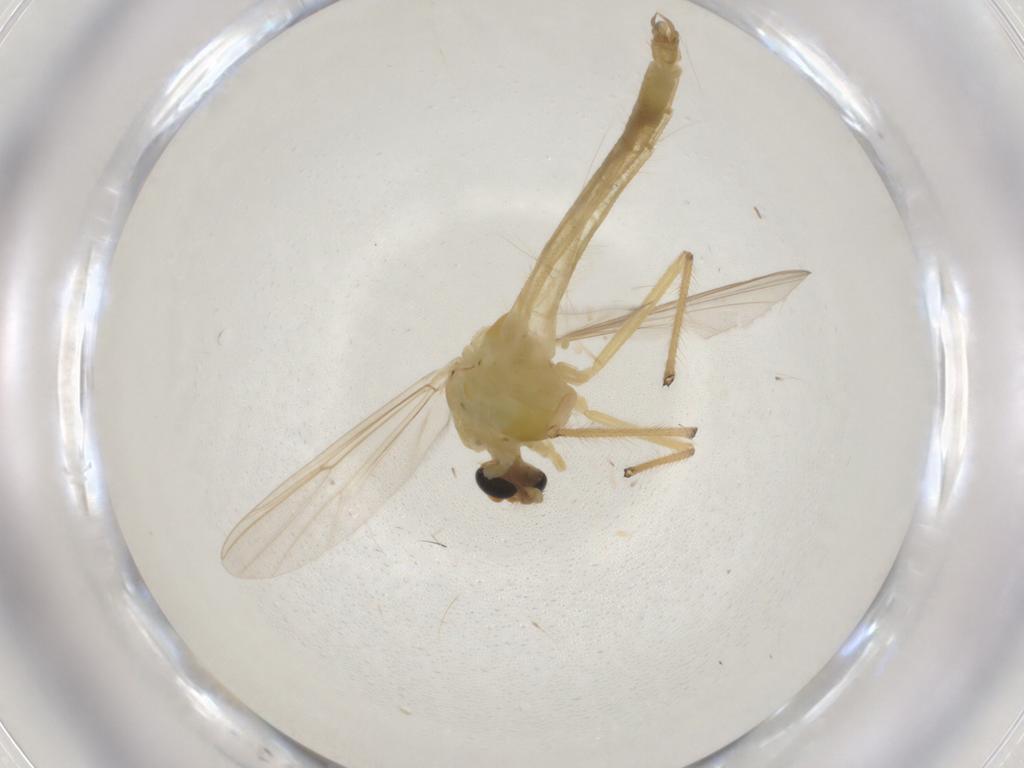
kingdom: Animalia
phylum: Arthropoda
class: Insecta
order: Diptera
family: Chironomidae
